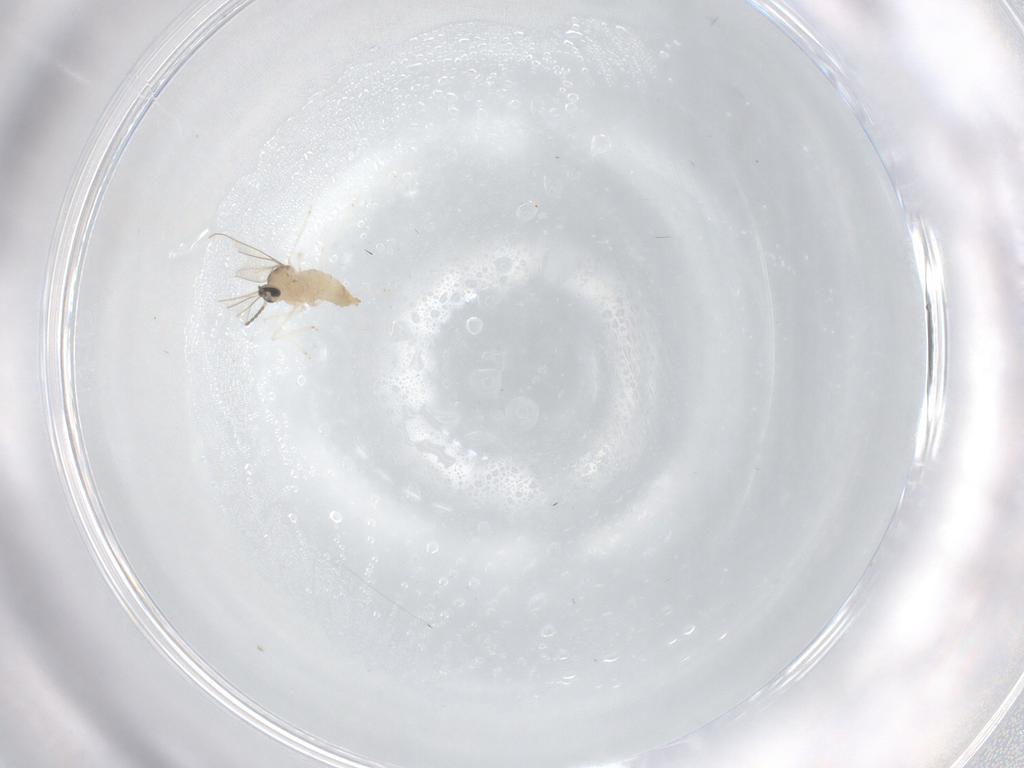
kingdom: Animalia
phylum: Arthropoda
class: Insecta
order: Diptera
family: Cecidomyiidae
